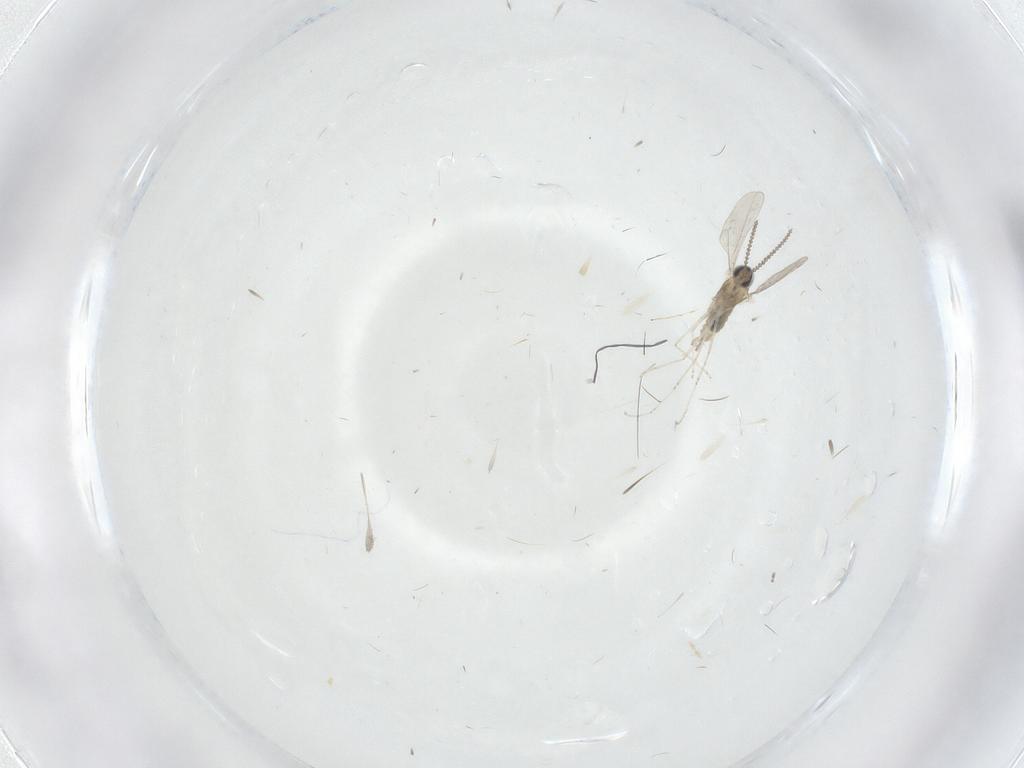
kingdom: Animalia
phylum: Arthropoda
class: Insecta
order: Diptera
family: Chironomidae
